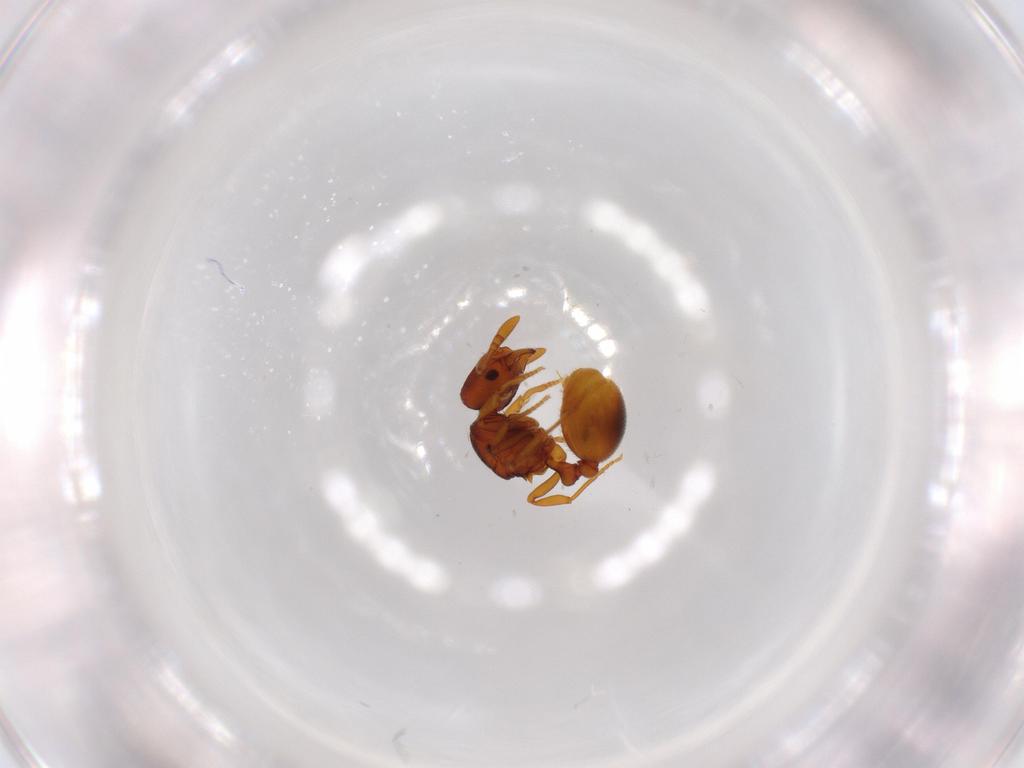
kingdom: Animalia
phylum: Arthropoda
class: Insecta
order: Hymenoptera
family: Formicidae
